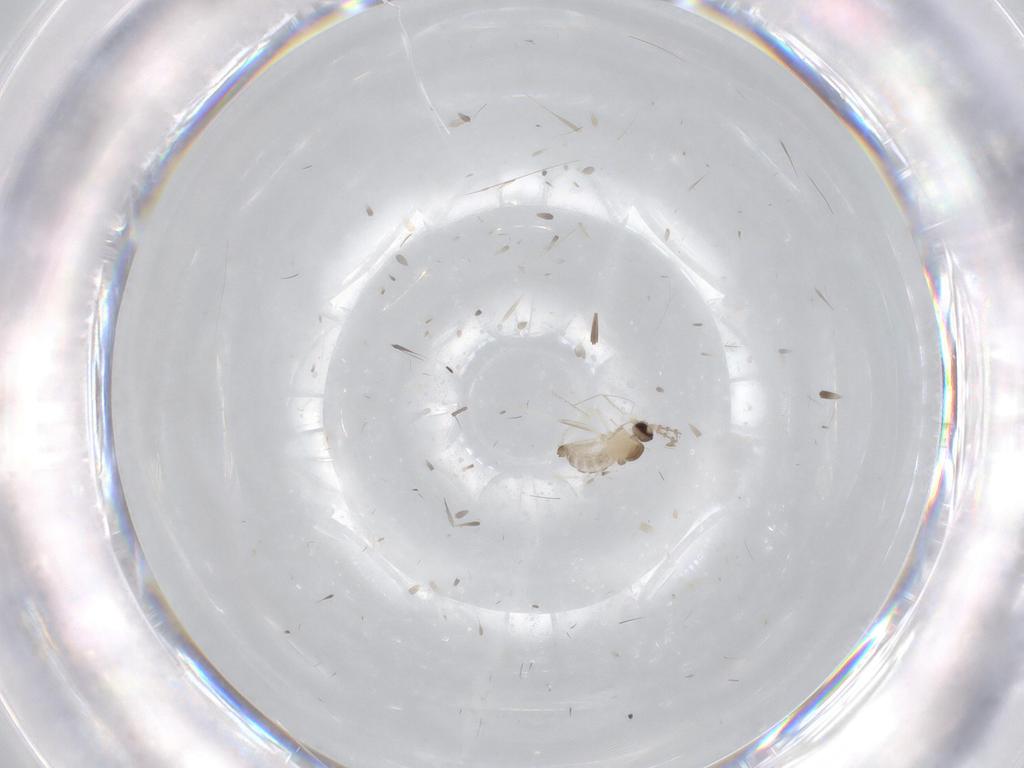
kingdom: Animalia
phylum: Arthropoda
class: Insecta
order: Diptera
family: Cecidomyiidae
